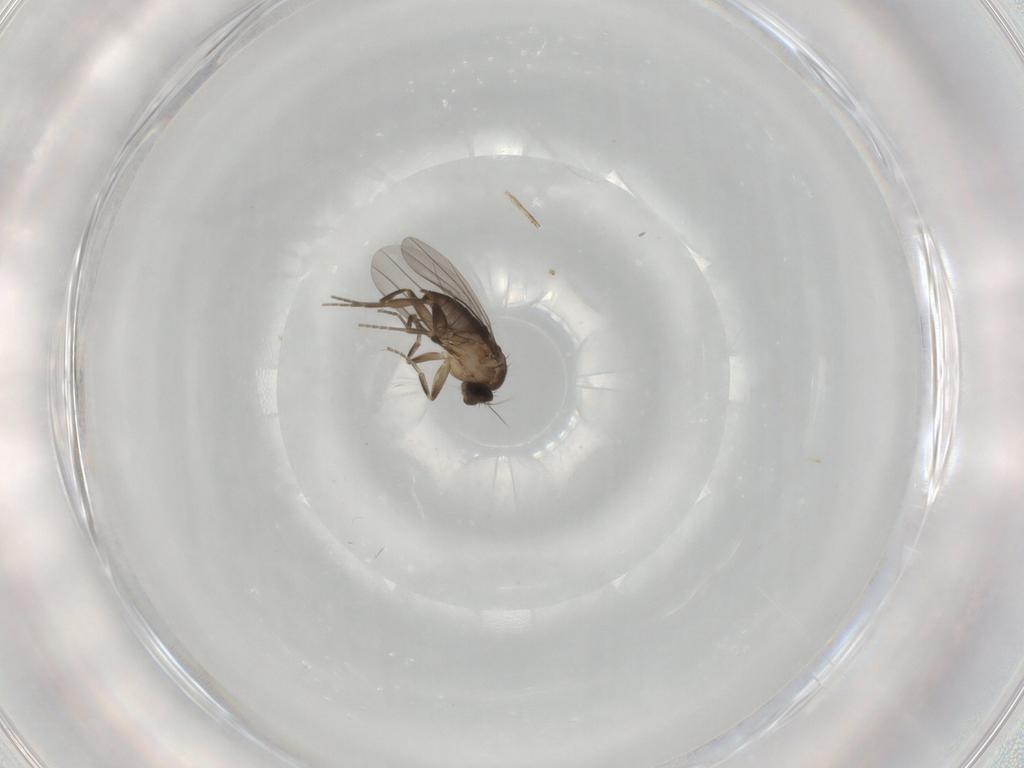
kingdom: Animalia
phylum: Arthropoda
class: Insecta
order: Diptera
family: Phoridae
